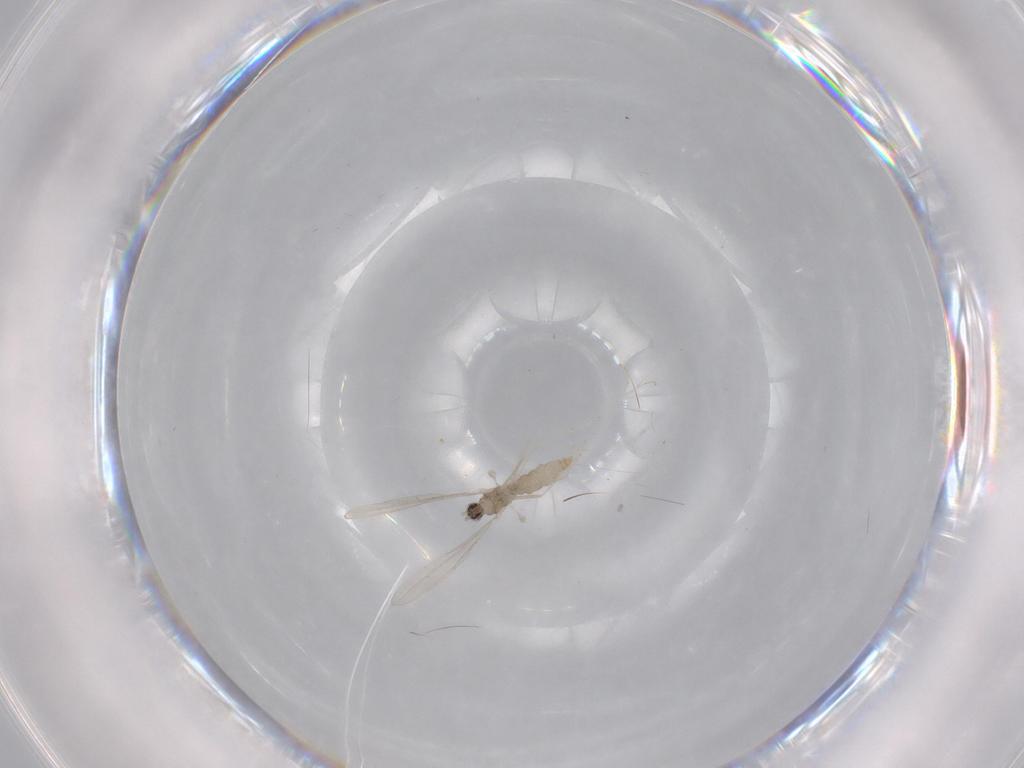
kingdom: Animalia
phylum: Arthropoda
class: Insecta
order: Diptera
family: Cecidomyiidae
